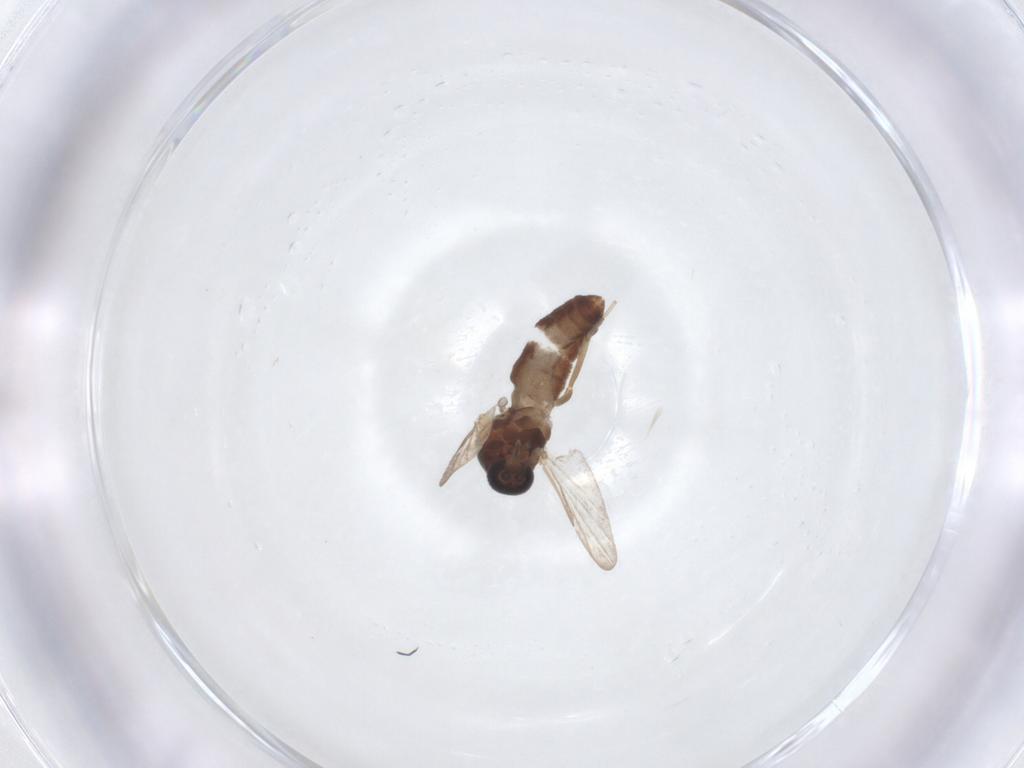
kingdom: Animalia
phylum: Arthropoda
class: Insecta
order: Diptera
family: Ceratopogonidae
